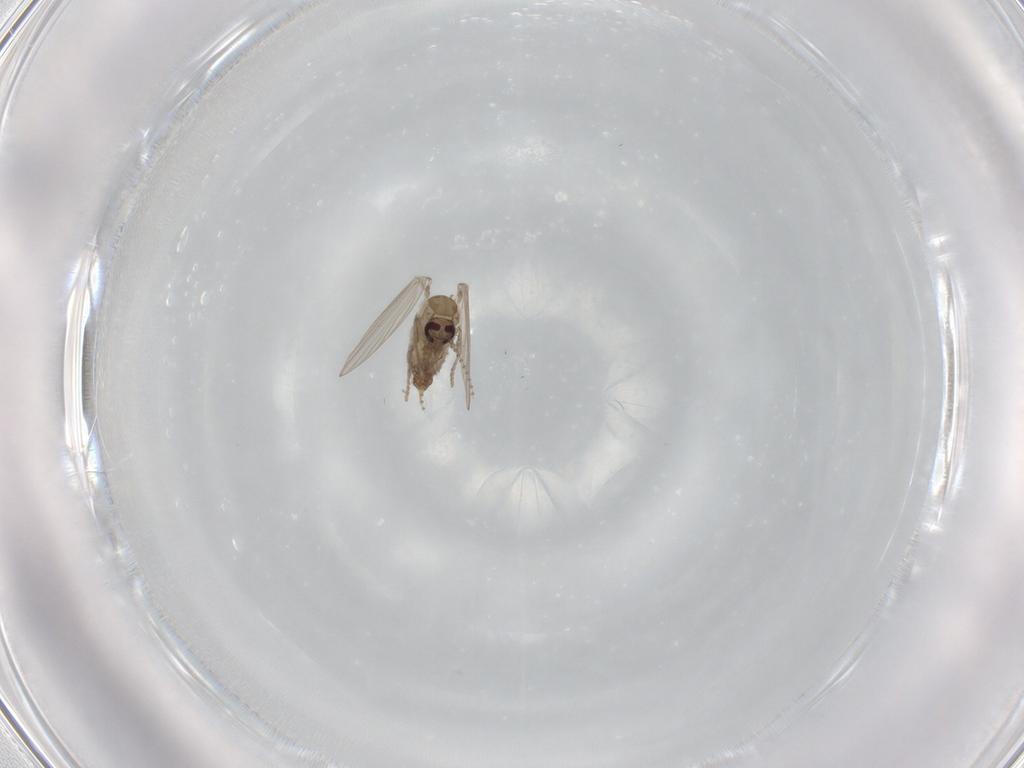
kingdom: Animalia
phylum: Arthropoda
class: Insecta
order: Diptera
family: Psychodidae
